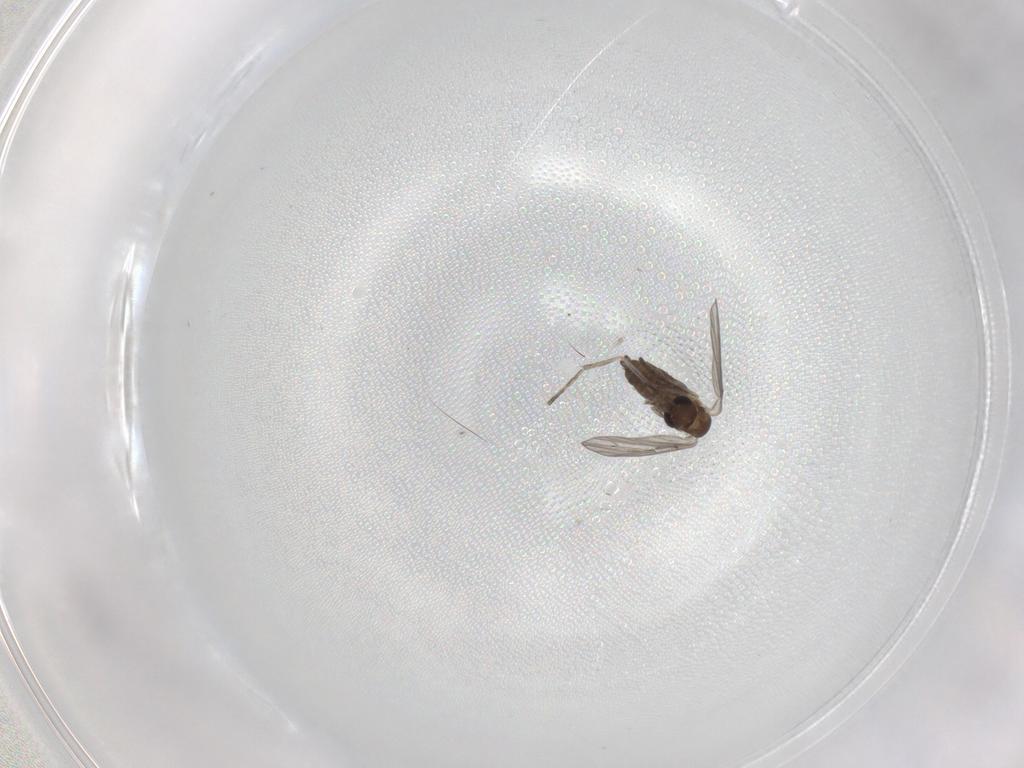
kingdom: Animalia
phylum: Arthropoda
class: Insecta
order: Diptera
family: Psychodidae
